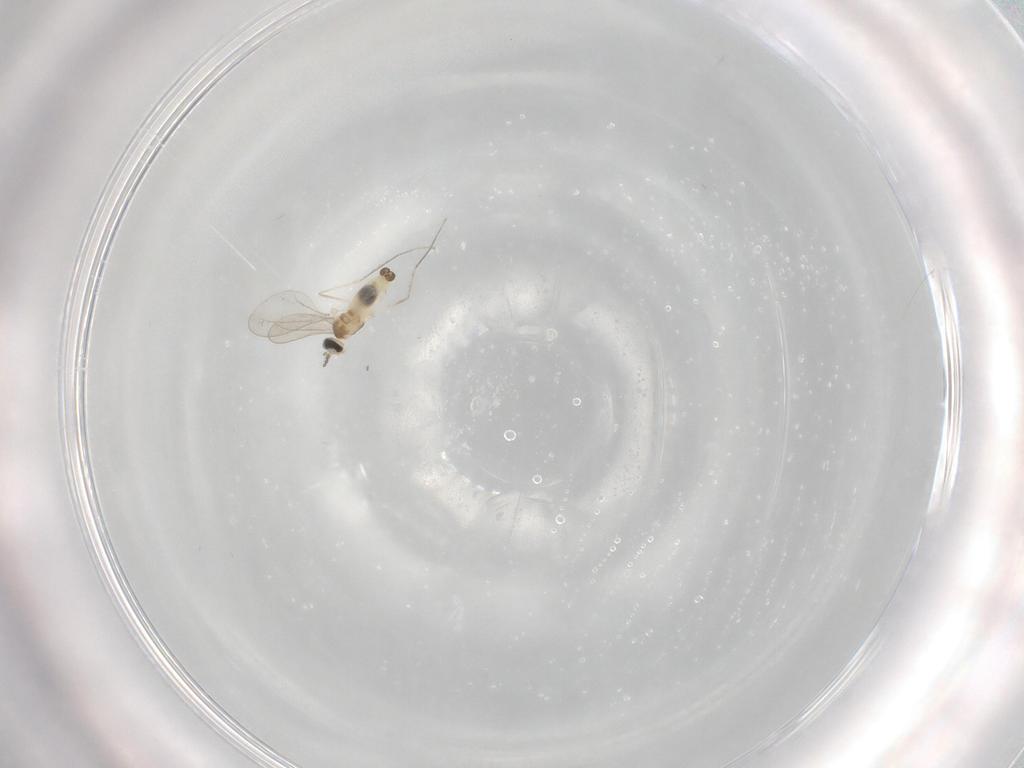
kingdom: Animalia
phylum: Arthropoda
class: Insecta
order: Diptera
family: Cecidomyiidae
